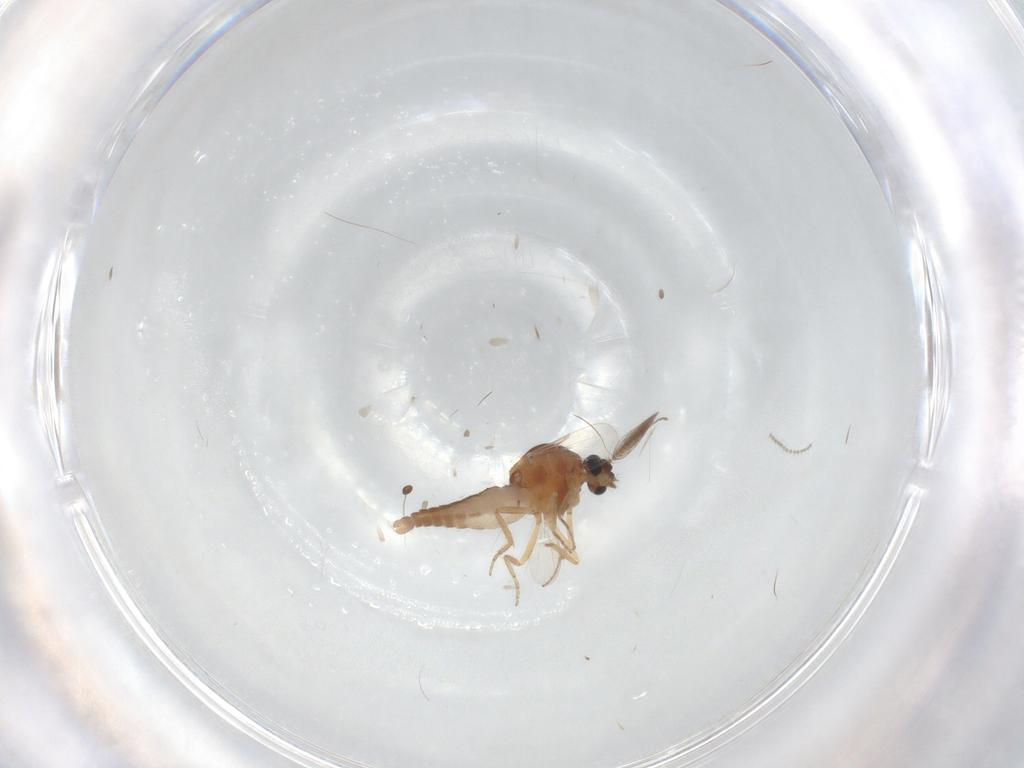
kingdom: Animalia
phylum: Arthropoda
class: Insecta
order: Diptera
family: Ceratopogonidae
